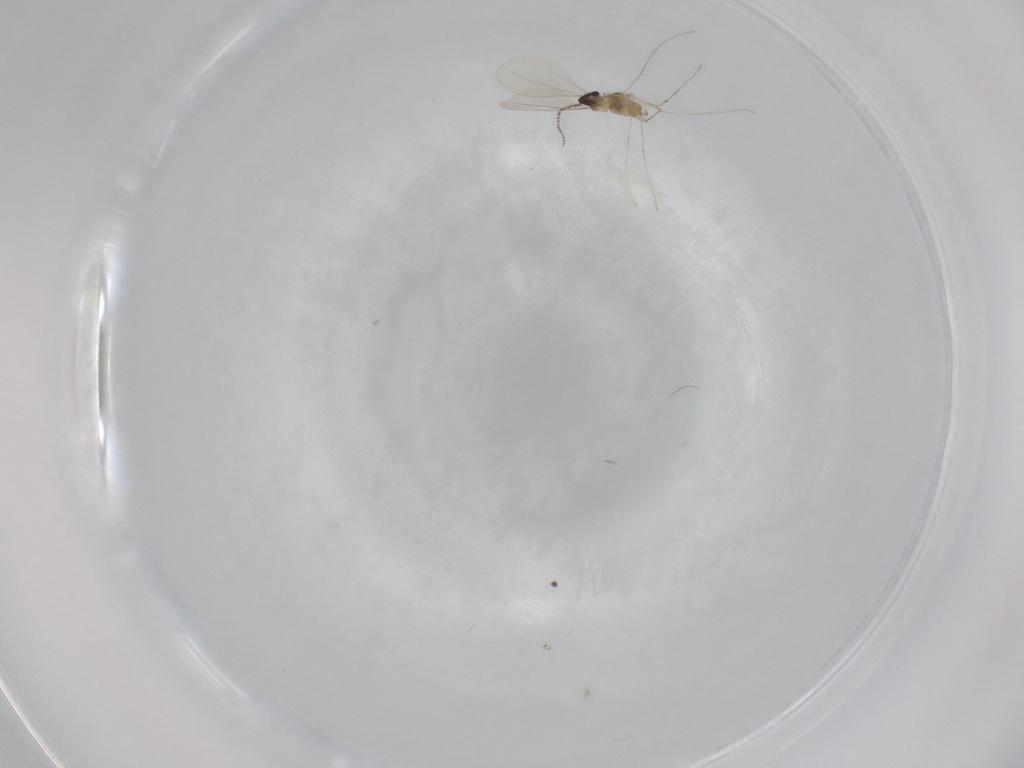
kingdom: Animalia
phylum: Arthropoda
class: Insecta
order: Diptera
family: Cecidomyiidae
